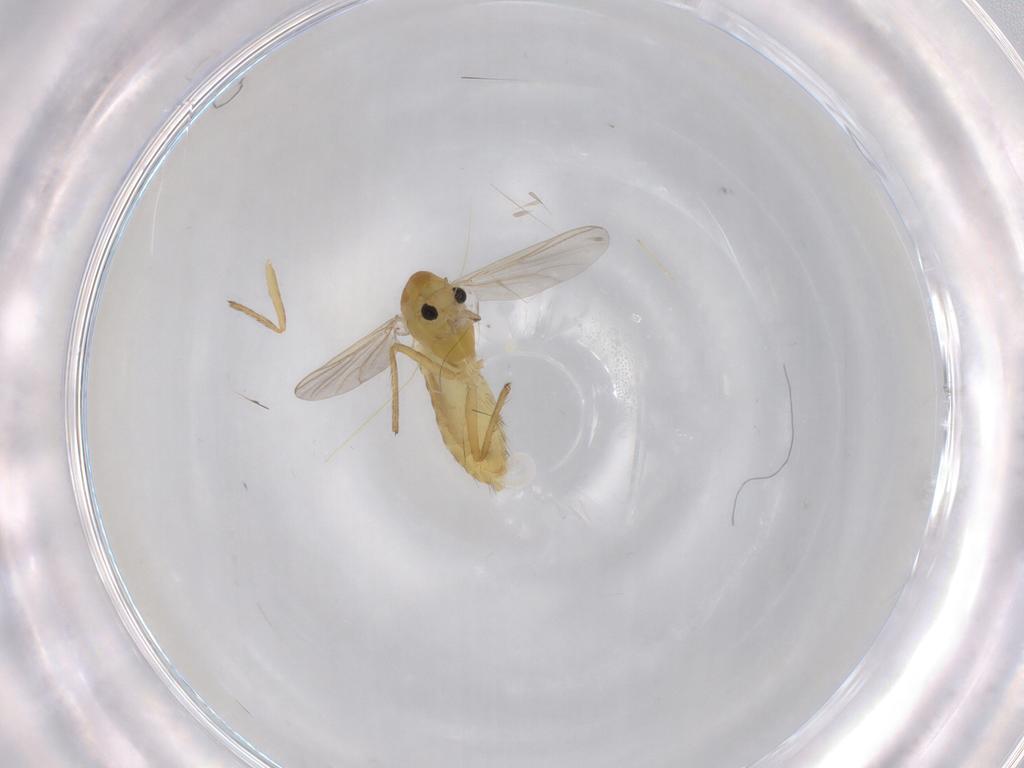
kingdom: Animalia
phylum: Arthropoda
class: Insecta
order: Diptera
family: Chironomidae
